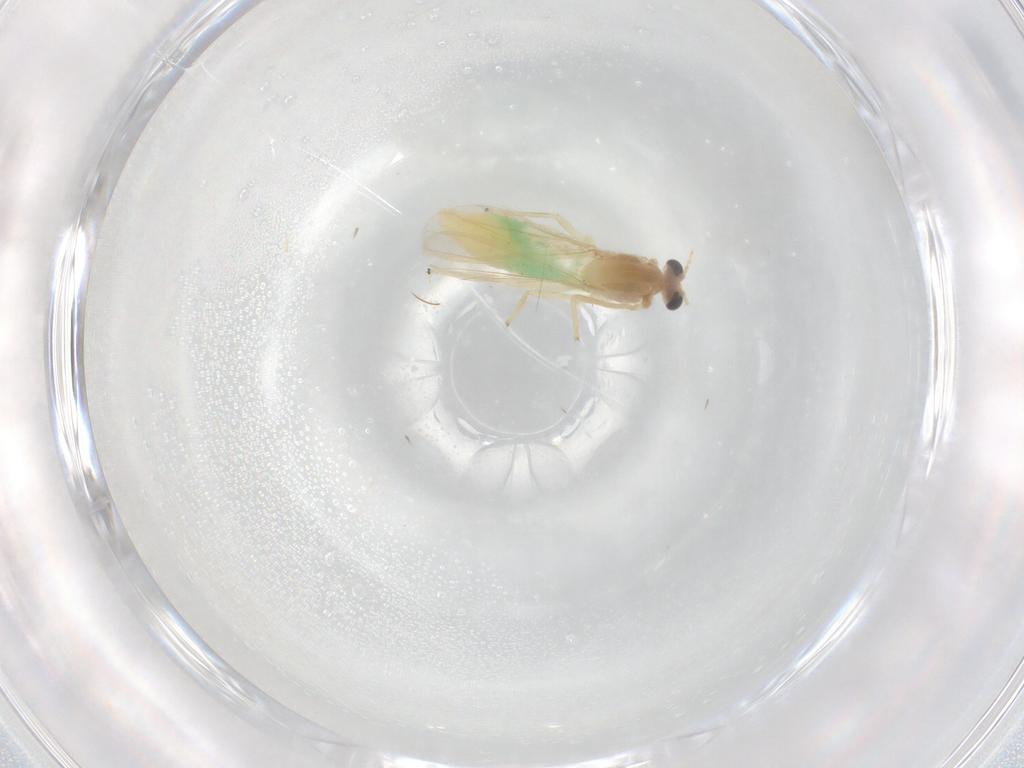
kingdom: Animalia
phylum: Arthropoda
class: Insecta
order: Diptera
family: Chironomidae
